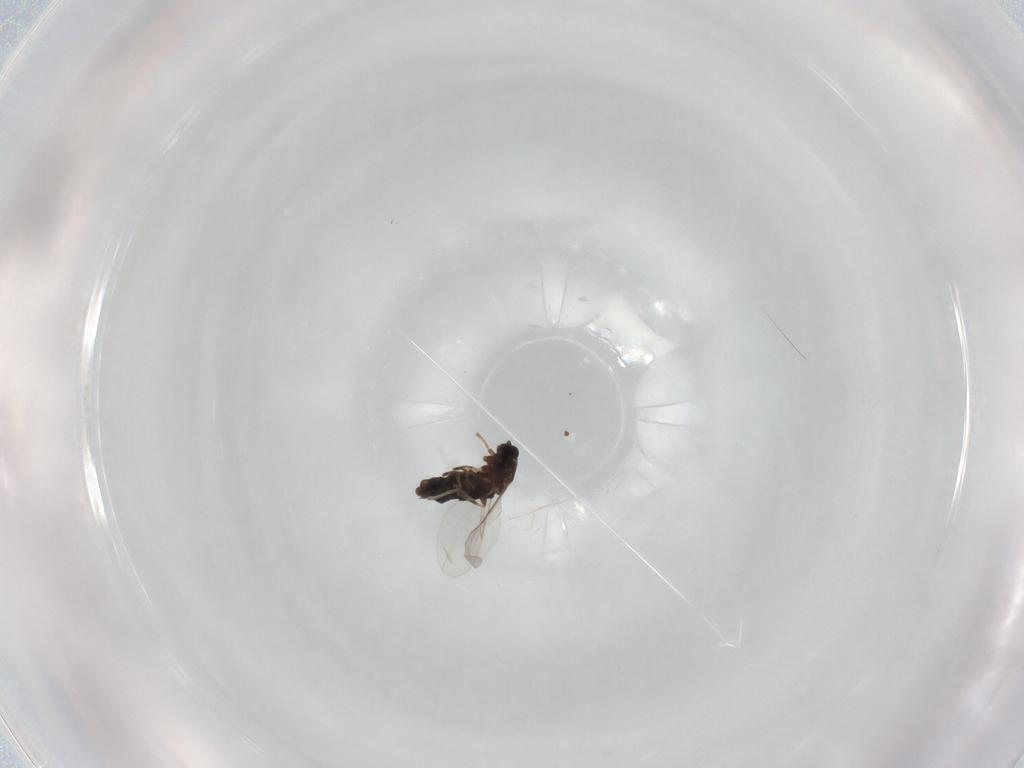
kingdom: Animalia
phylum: Arthropoda
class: Insecta
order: Diptera
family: Scatopsidae
